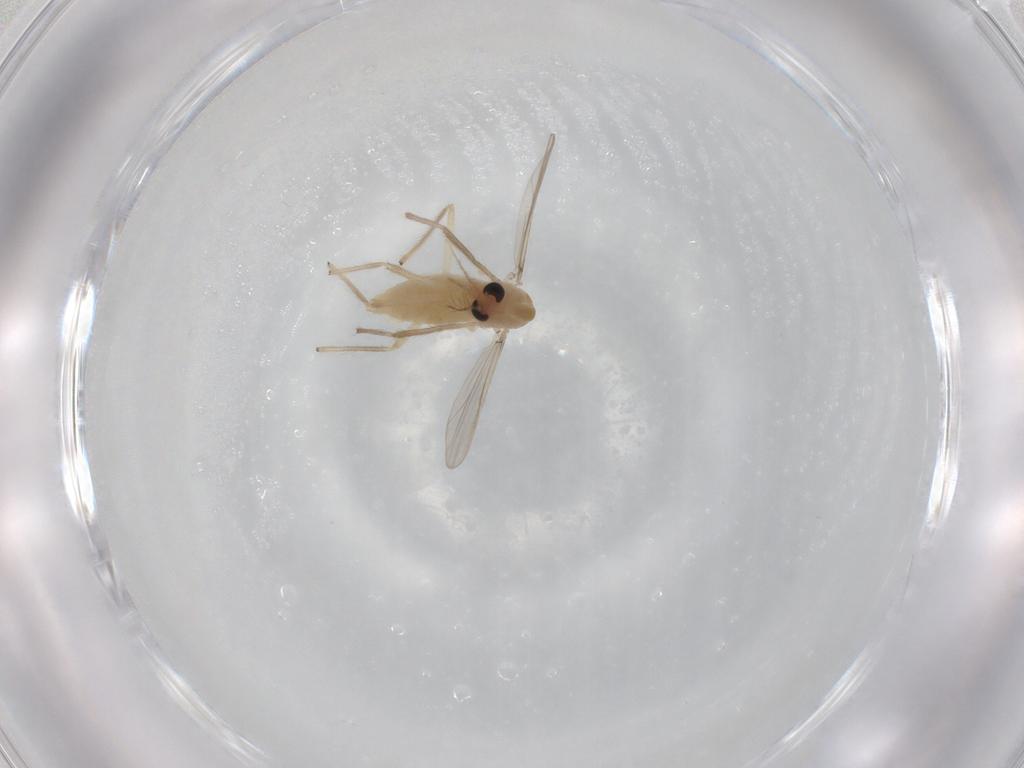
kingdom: Animalia
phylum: Arthropoda
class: Insecta
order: Diptera
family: Chironomidae
